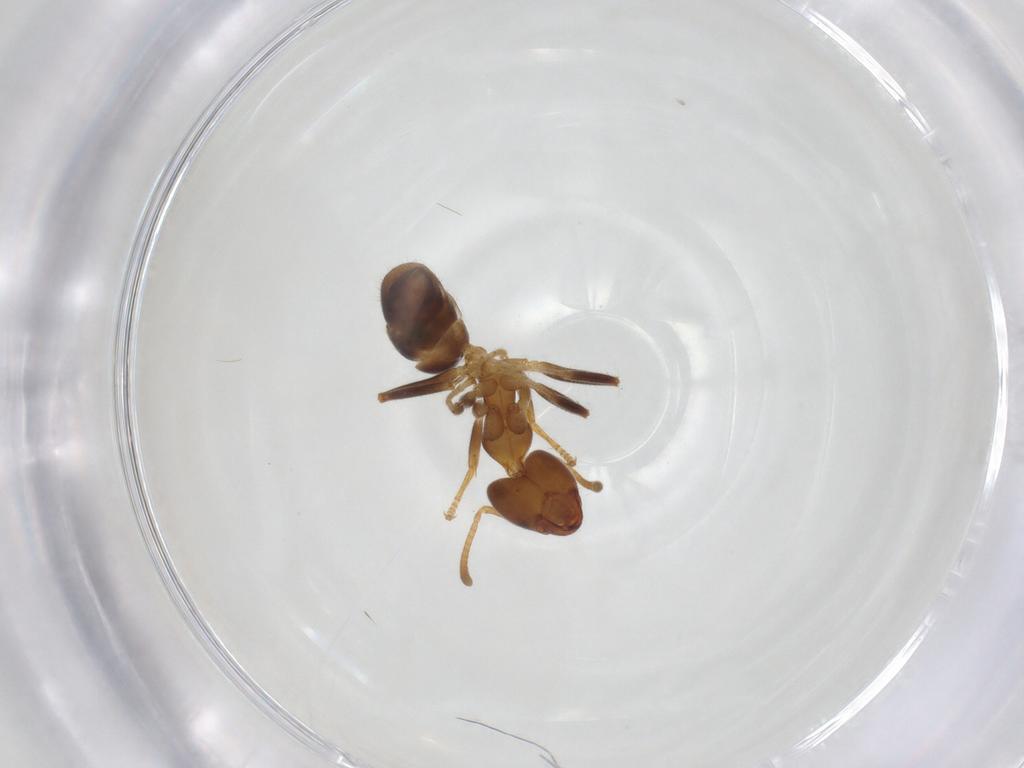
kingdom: Animalia
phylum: Arthropoda
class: Insecta
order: Hymenoptera
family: Formicidae
